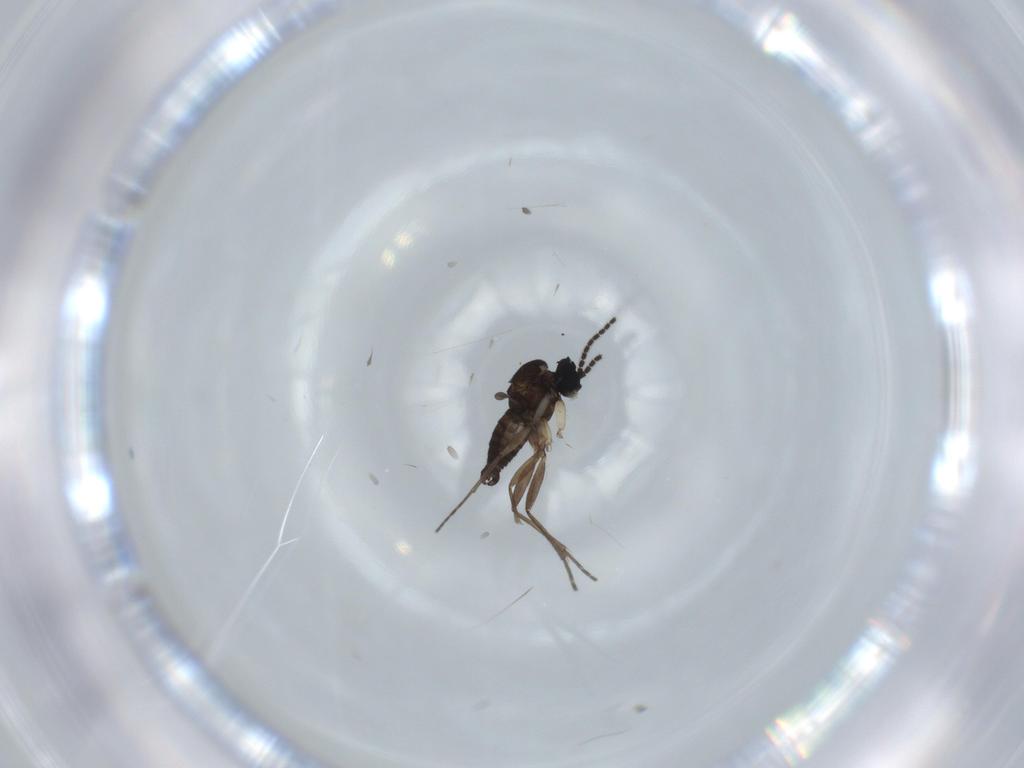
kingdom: Animalia
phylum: Arthropoda
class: Insecta
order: Diptera
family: Sciaridae
